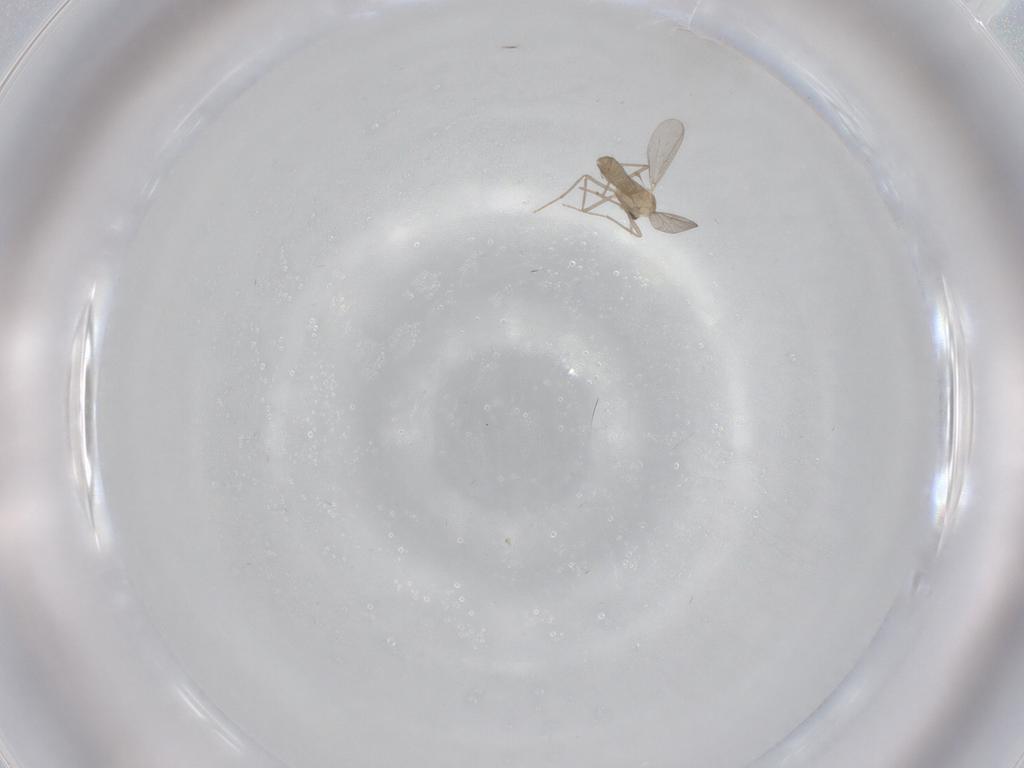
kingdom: Animalia
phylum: Arthropoda
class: Insecta
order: Diptera
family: Chironomidae
